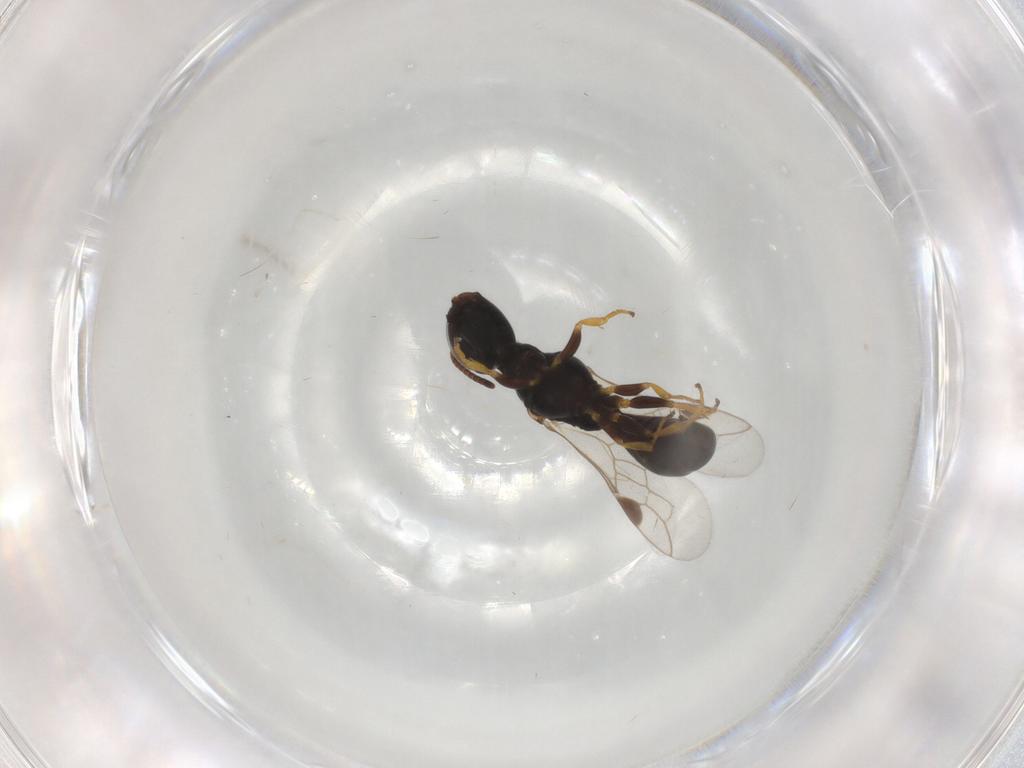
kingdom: Animalia
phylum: Arthropoda
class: Insecta
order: Hymenoptera
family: Crabronidae
